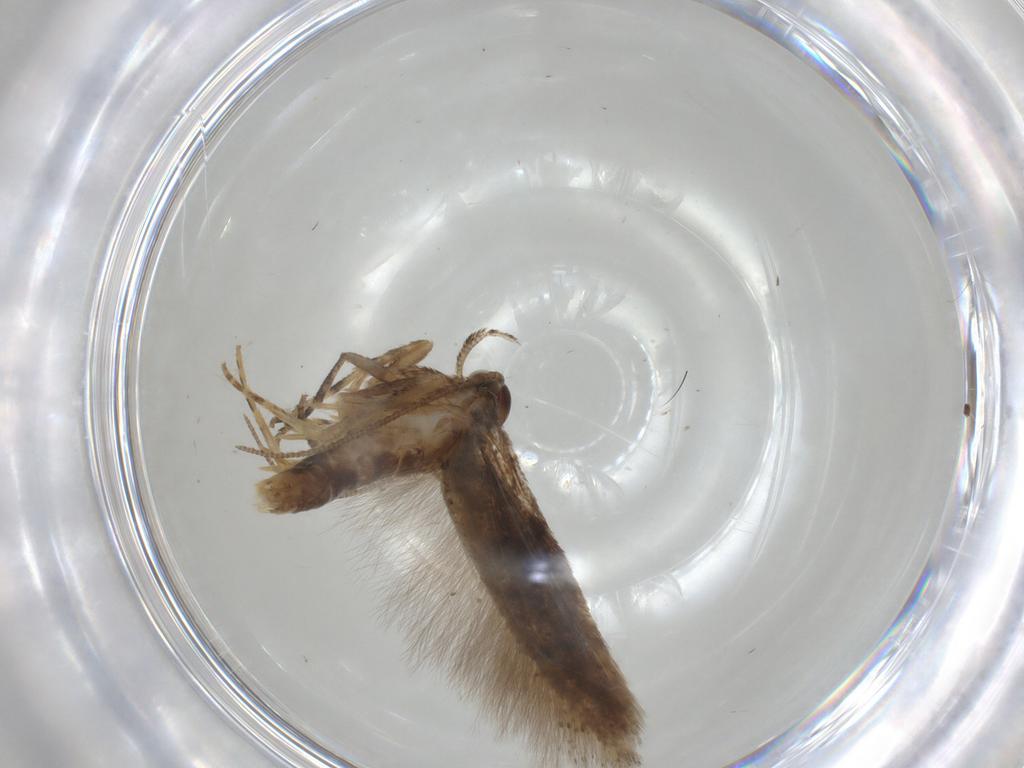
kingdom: Animalia
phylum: Arthropoda
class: Insecta
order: Lepidoptera
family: Gelechiidae
